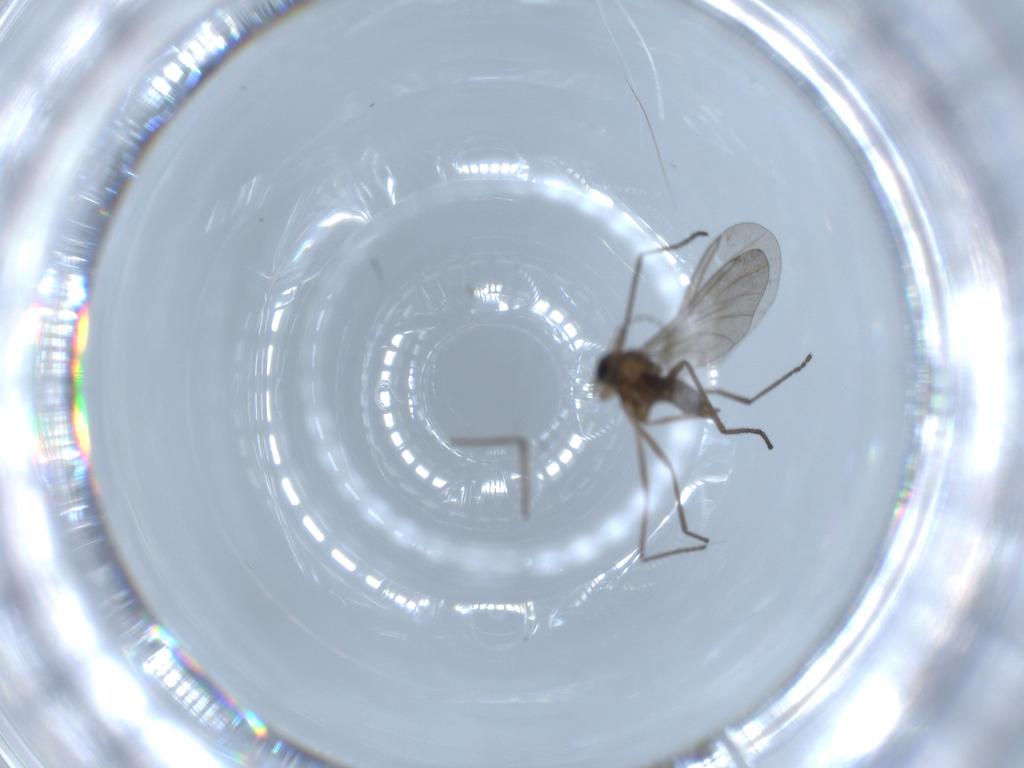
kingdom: Animalia
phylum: Arthropoda
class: Insecta
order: Diptera
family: Cecidomyiidae
